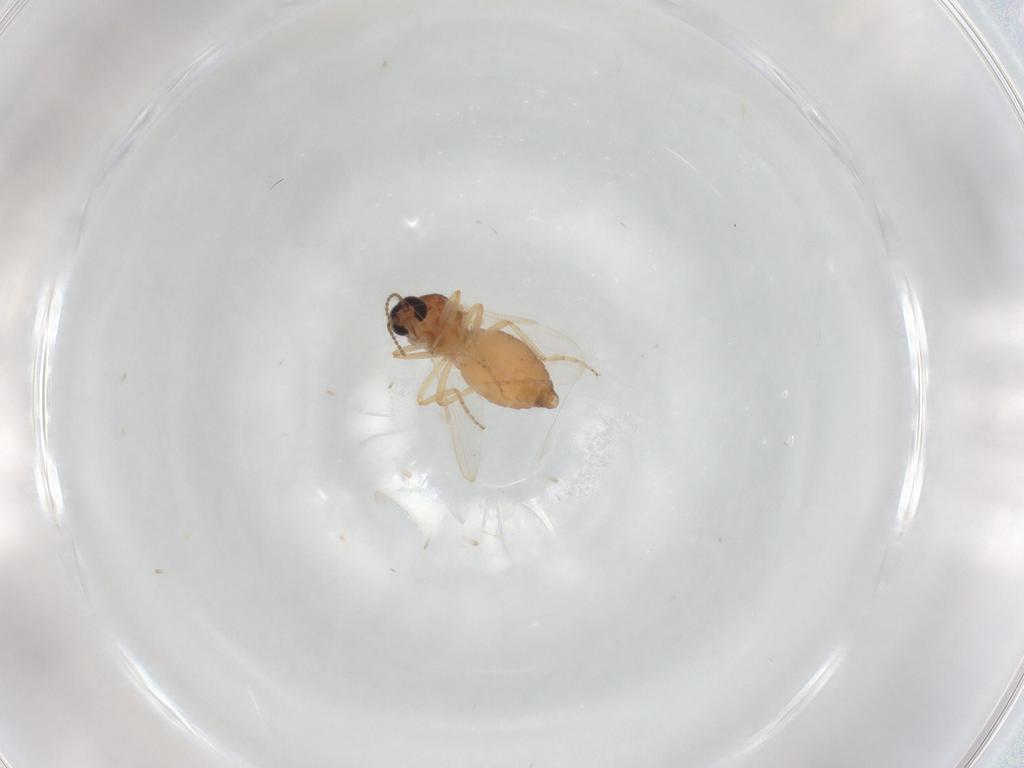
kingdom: Animalia
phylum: Arthropoda
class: Insecta
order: Diptera
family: Ceratopogonidae
